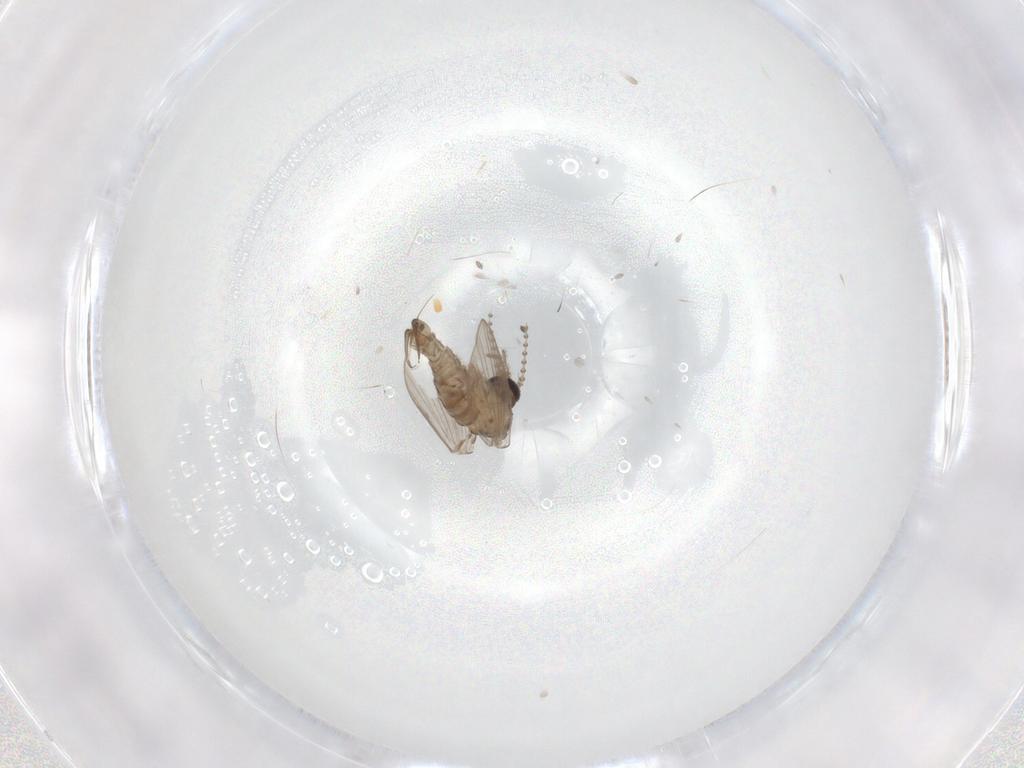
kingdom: Animalia
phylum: Arthropoda
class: Insecta
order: Diptera
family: Psychodidae
